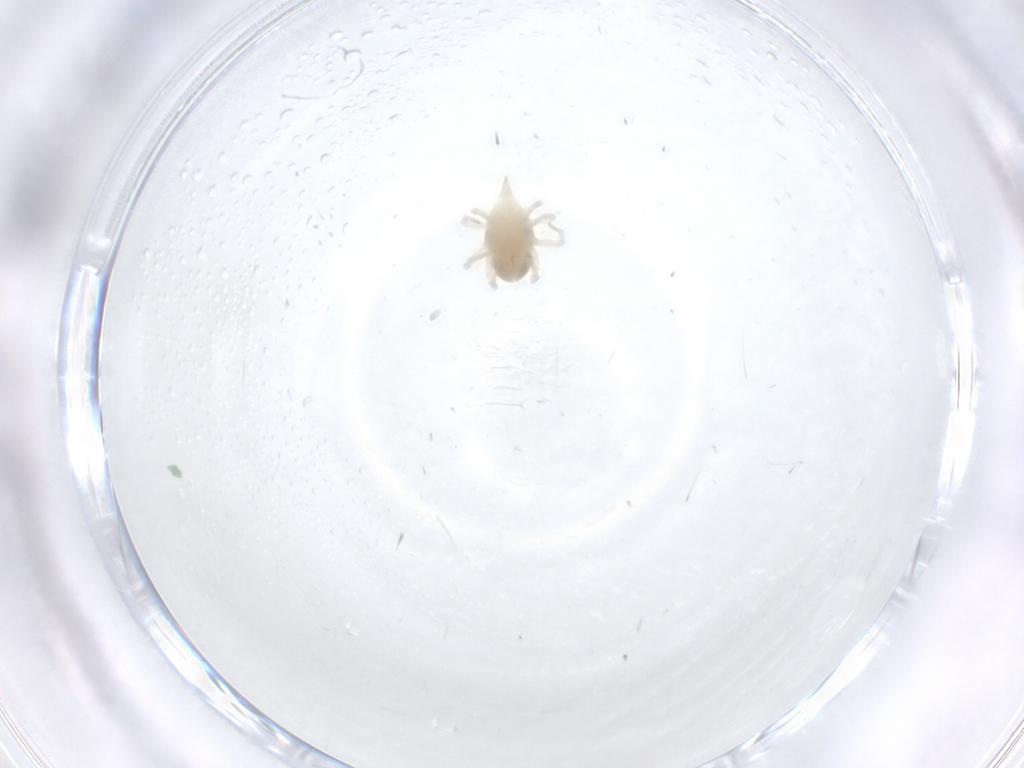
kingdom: Animalia
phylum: Arthropoda
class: Arachnida
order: Trombidiformes
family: Bdellidae
